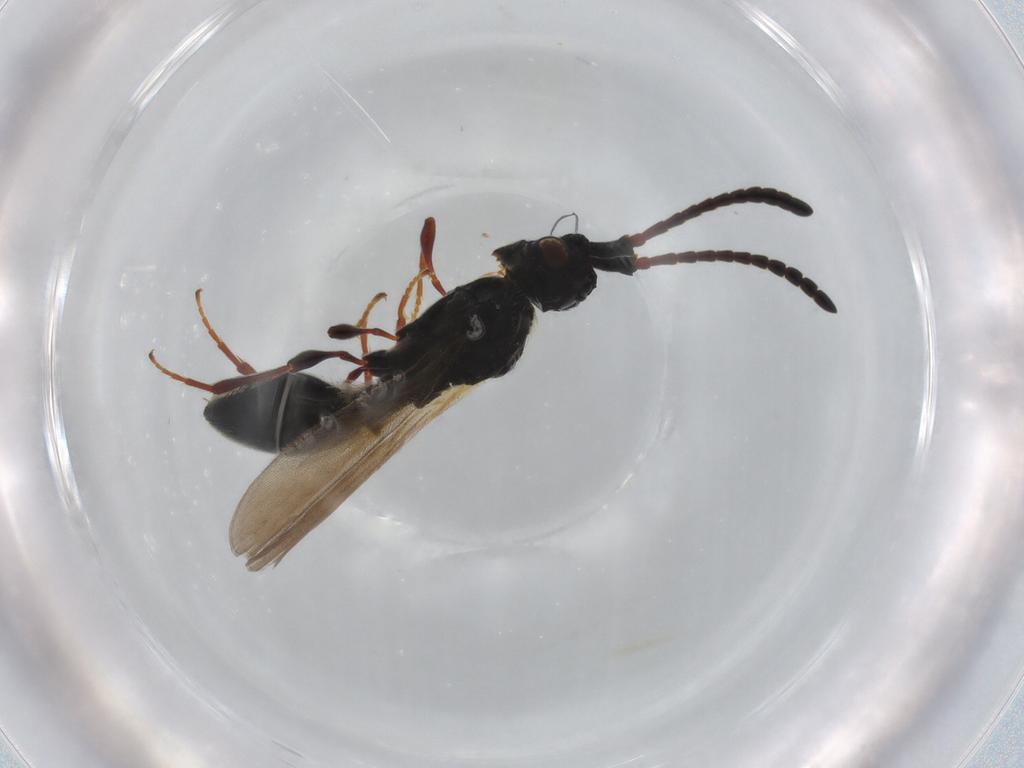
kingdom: Animalia
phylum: Arthropoda
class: Insecta
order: Hymenoptera
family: Diapriidae
